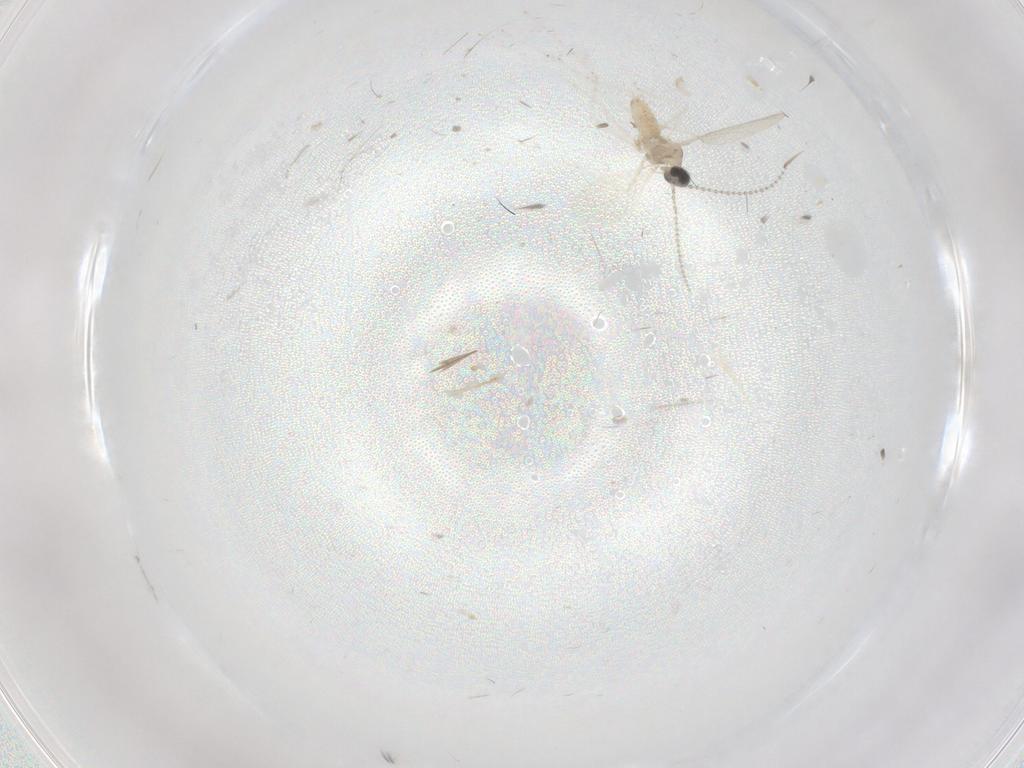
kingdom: Animalia
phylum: Arthropoda
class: Insecta
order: Diptera
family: Cecidomyiidae
